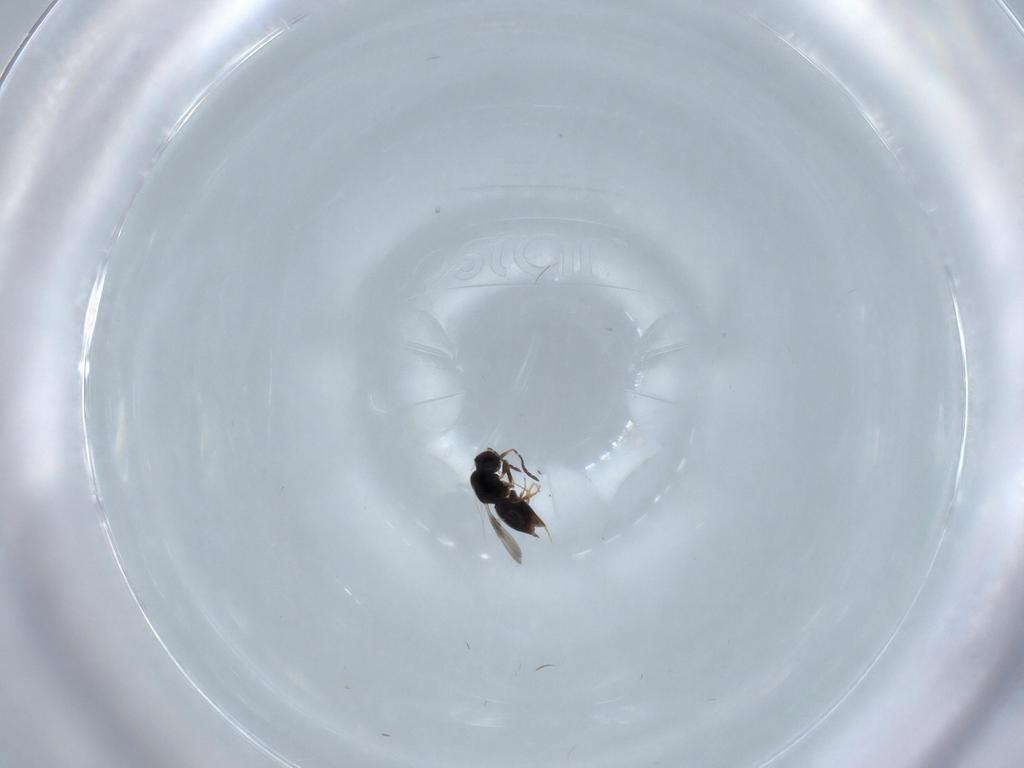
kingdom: Animalia
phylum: Arthropoda
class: Insecta
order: Hymenoptera
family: Ceraphronidae
